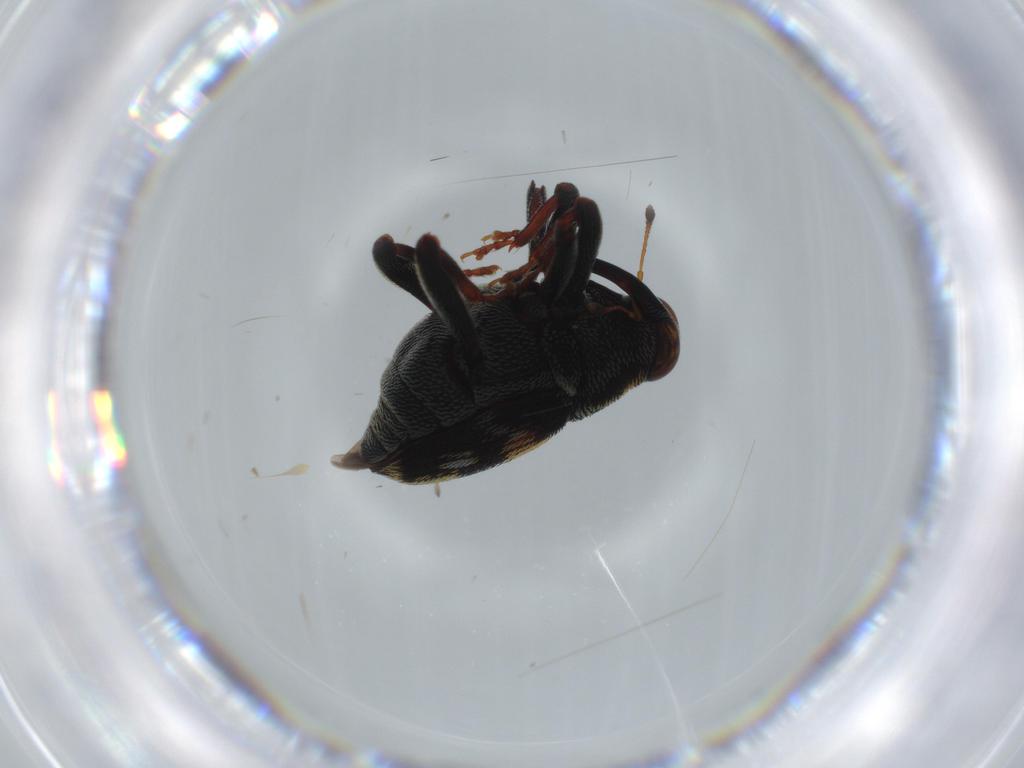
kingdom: Animalia
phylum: Arthropoda
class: Insecta
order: Coleoptera
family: Curculionidae
